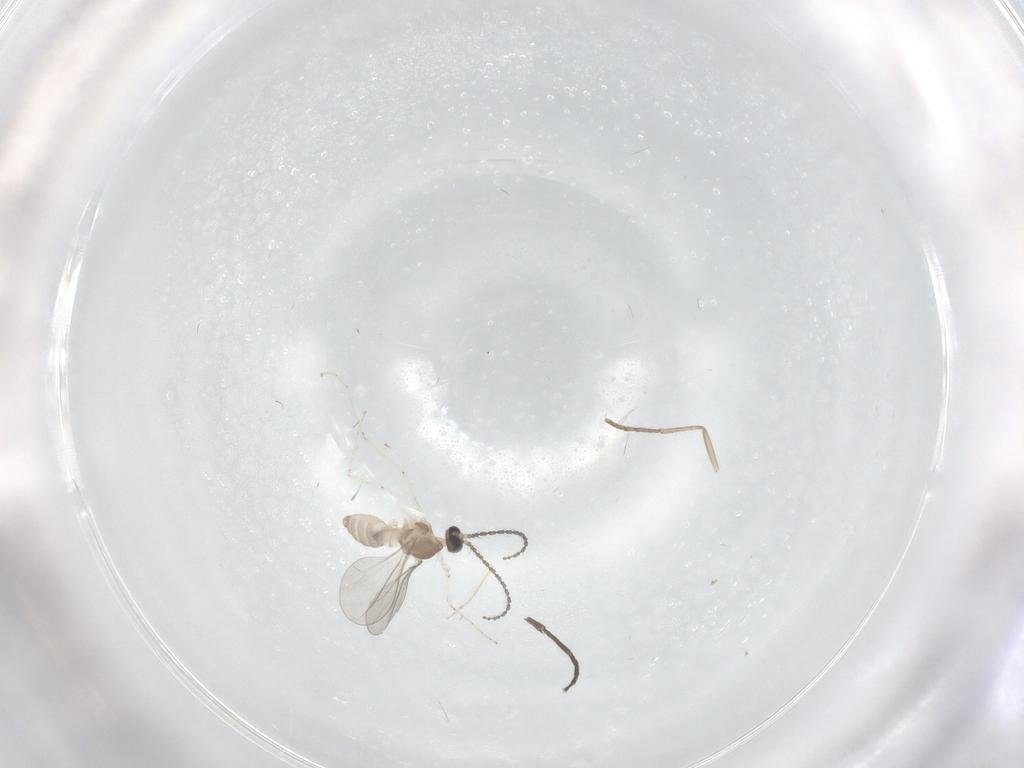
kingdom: Animalia
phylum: Arthropoda
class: Insecta
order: Diptera
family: Sciaridae
